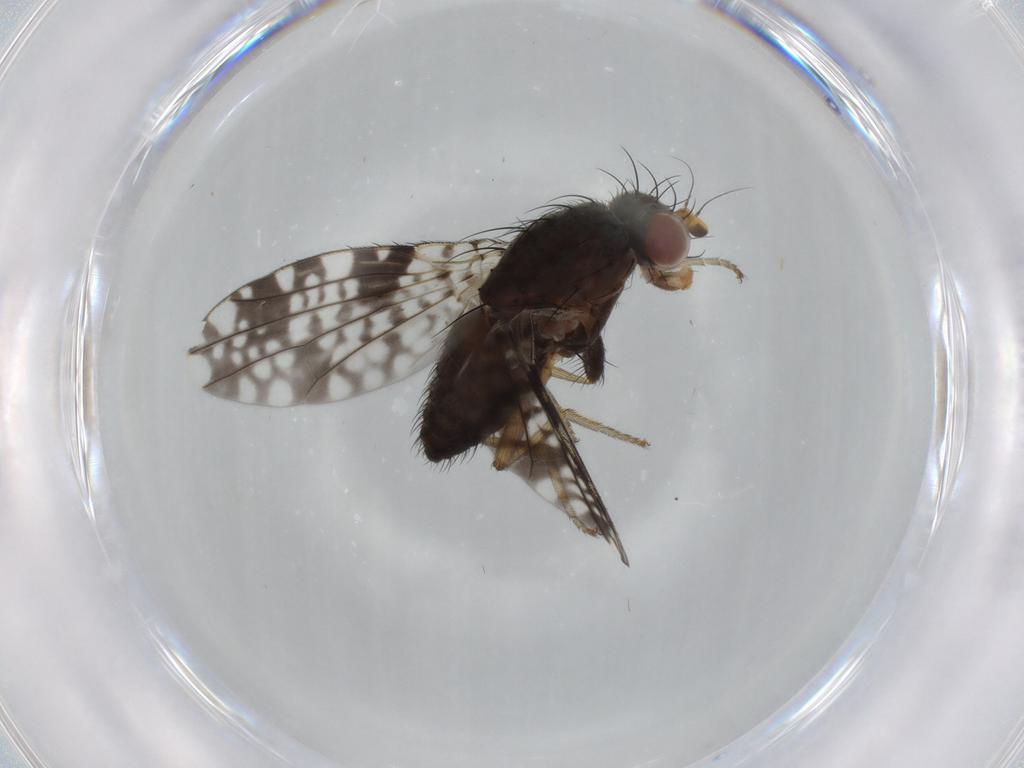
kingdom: Animalia
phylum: Arthropoda
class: Insecta
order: Diptera
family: Tephritidae
